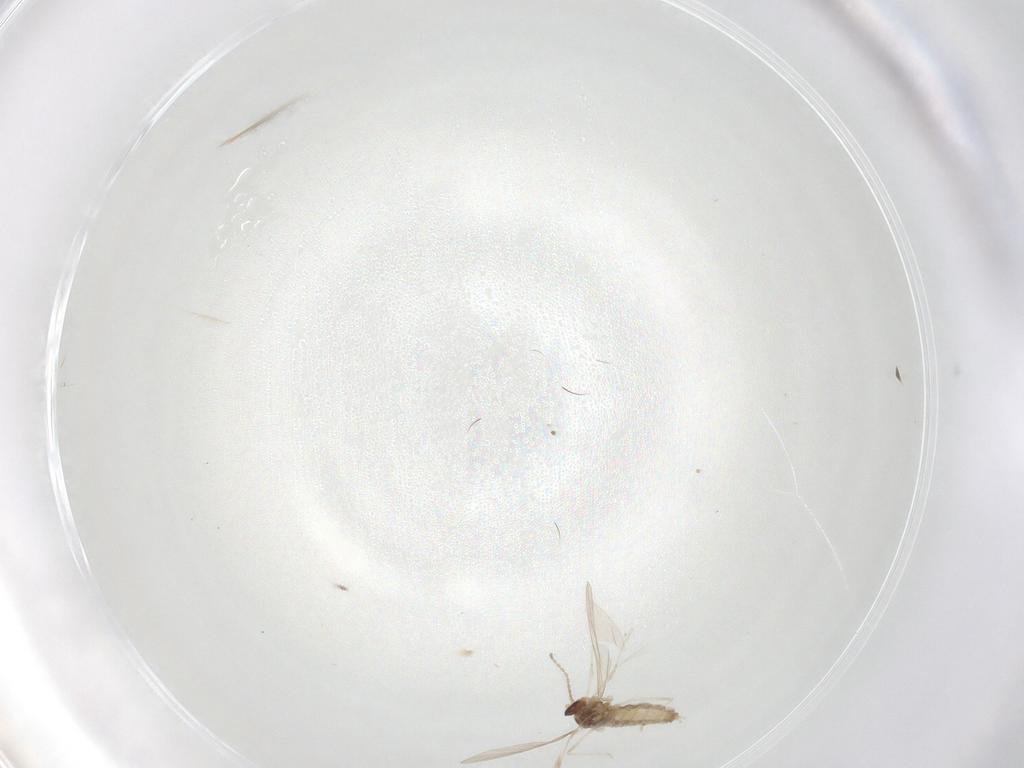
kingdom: Animalia
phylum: Arthropoda
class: Insecta
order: Diptera
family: Cecidomyiidae
